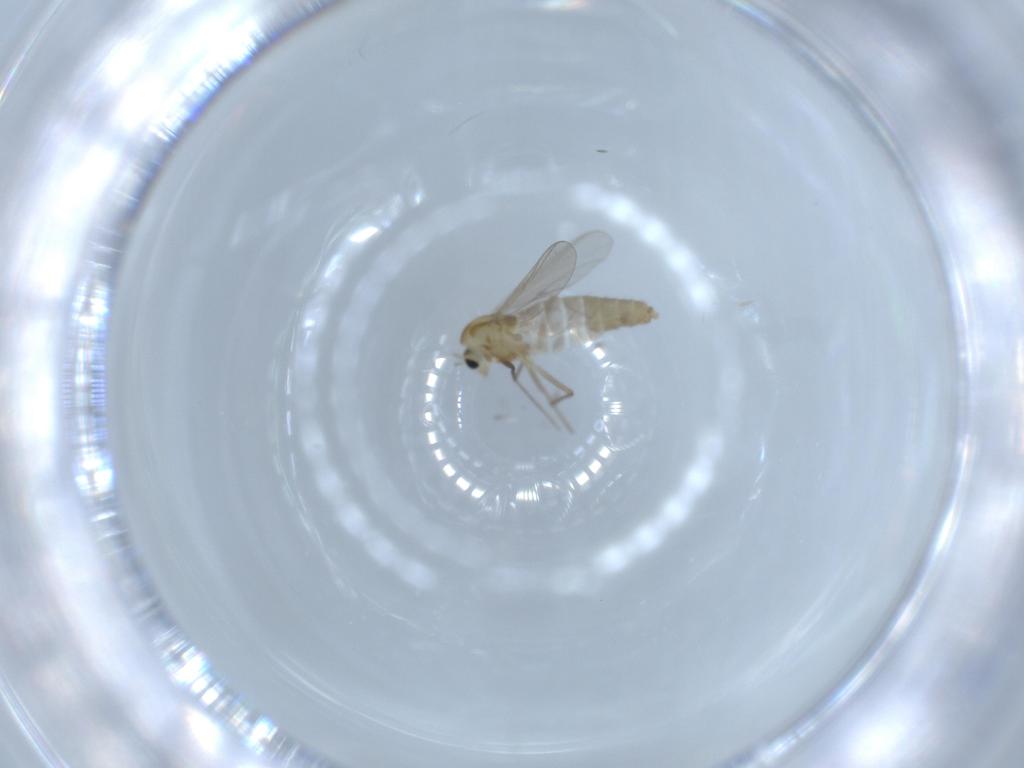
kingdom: Animalia
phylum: Arthropoda
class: Insecta
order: Diptera
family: Chironomidae
